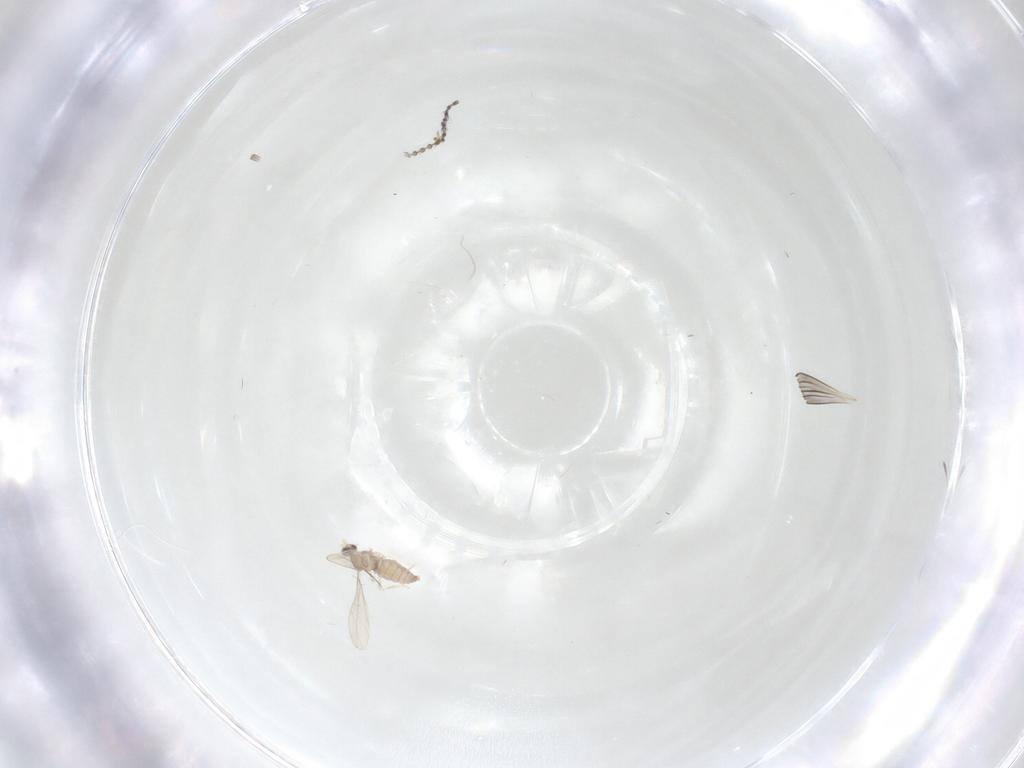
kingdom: Animalia
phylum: Arthropoda
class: Insecta
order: Diptera
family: Cecidomyiidae
